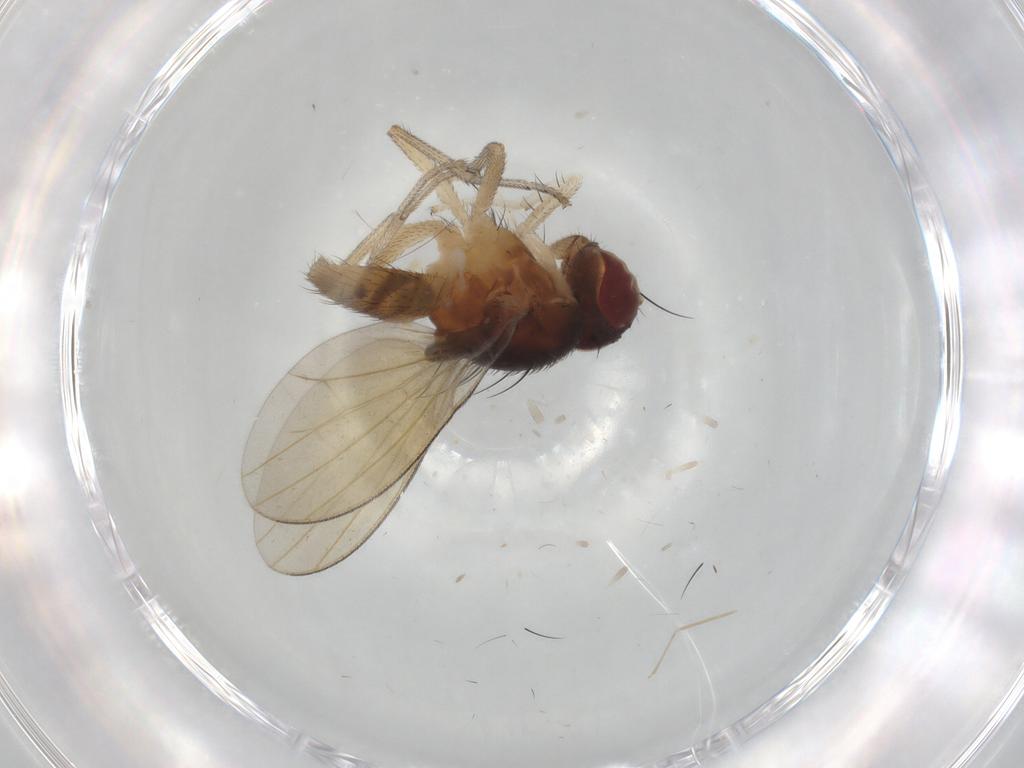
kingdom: Animalia
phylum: Arthropoda
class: Insecta
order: Diptera
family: Lauxaniidae
